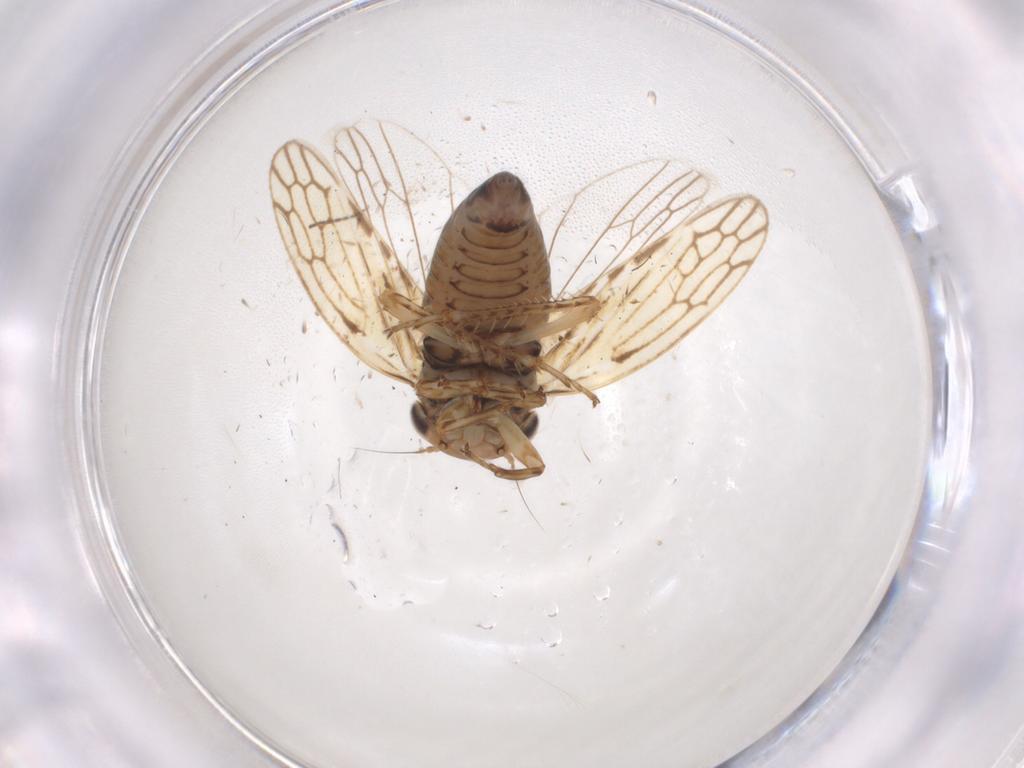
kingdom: Animalia
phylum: Arthropoda
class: Insecta
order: Hemiptera
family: Cicadellidae
